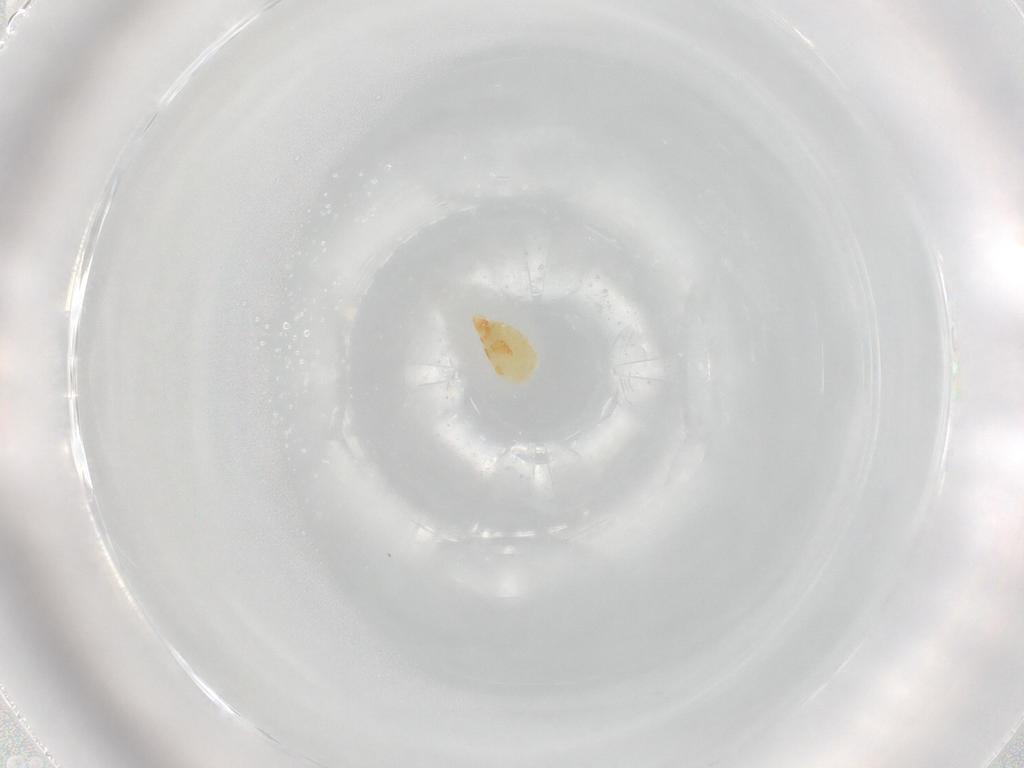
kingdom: Animalia
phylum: Arthropoda
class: Arachnida
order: Trombidiformes
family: Eupodidae
